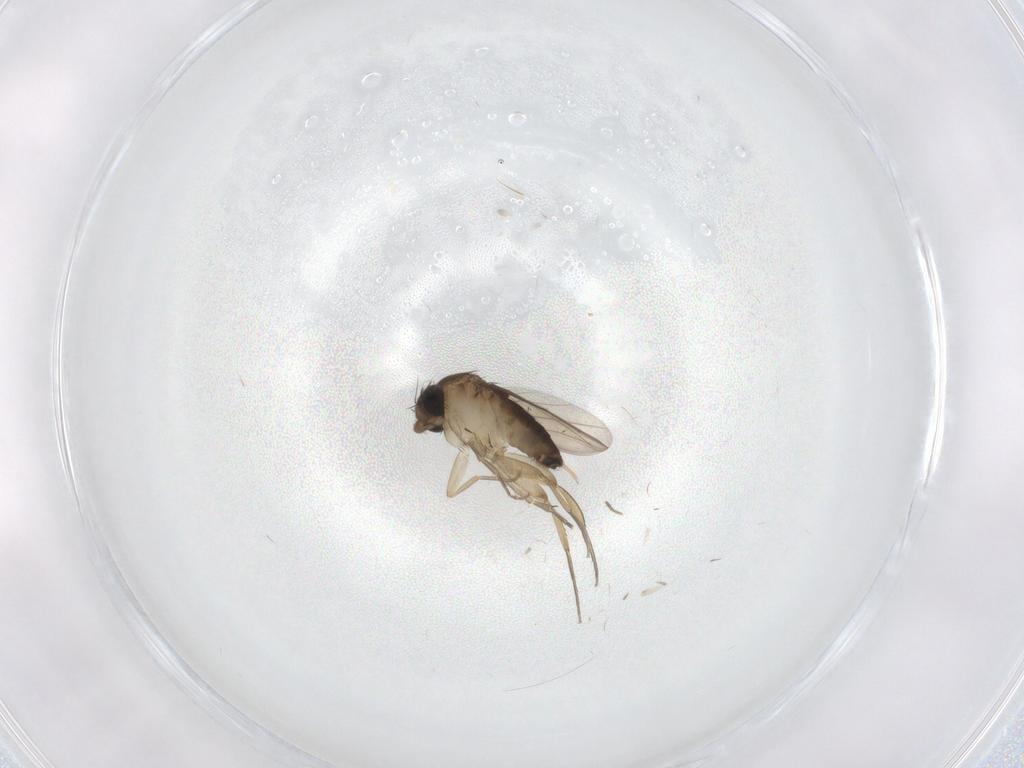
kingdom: Animalia
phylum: Arthropoda
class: Insecta
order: Diptera
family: Phoridae
